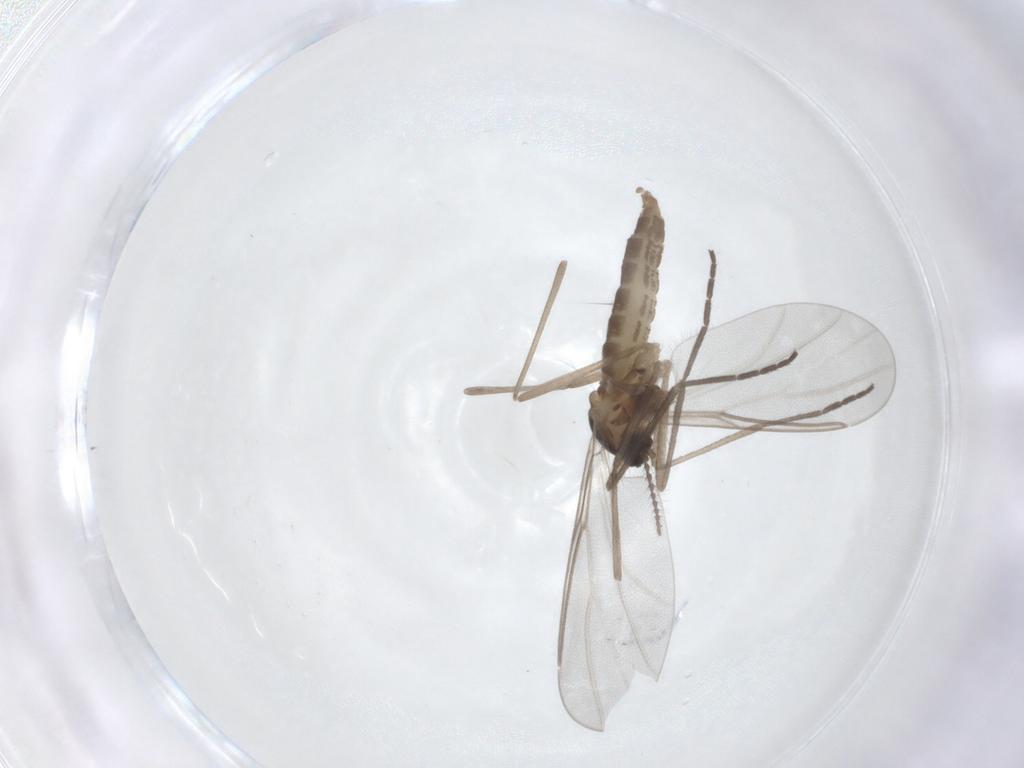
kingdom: Animalia
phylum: Arthropoda
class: Insecta
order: Diptera
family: Cecidomyiidae
